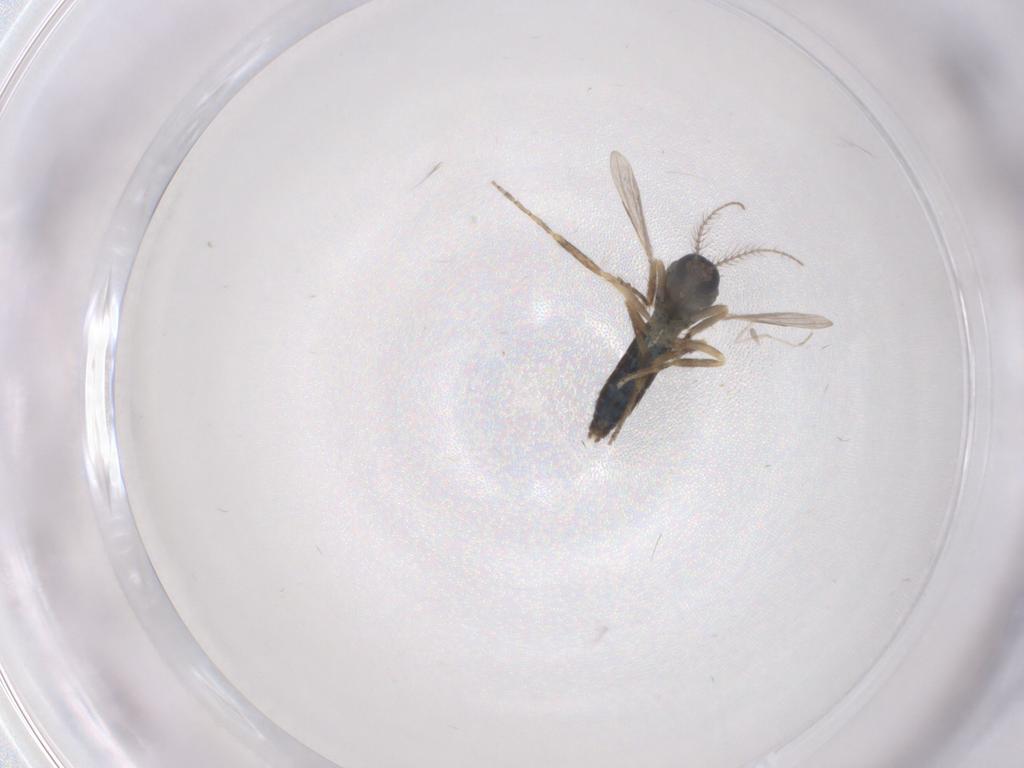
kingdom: Animalia
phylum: Arthropoda
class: Insecta
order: Diptera
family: Ceratopogonidae
